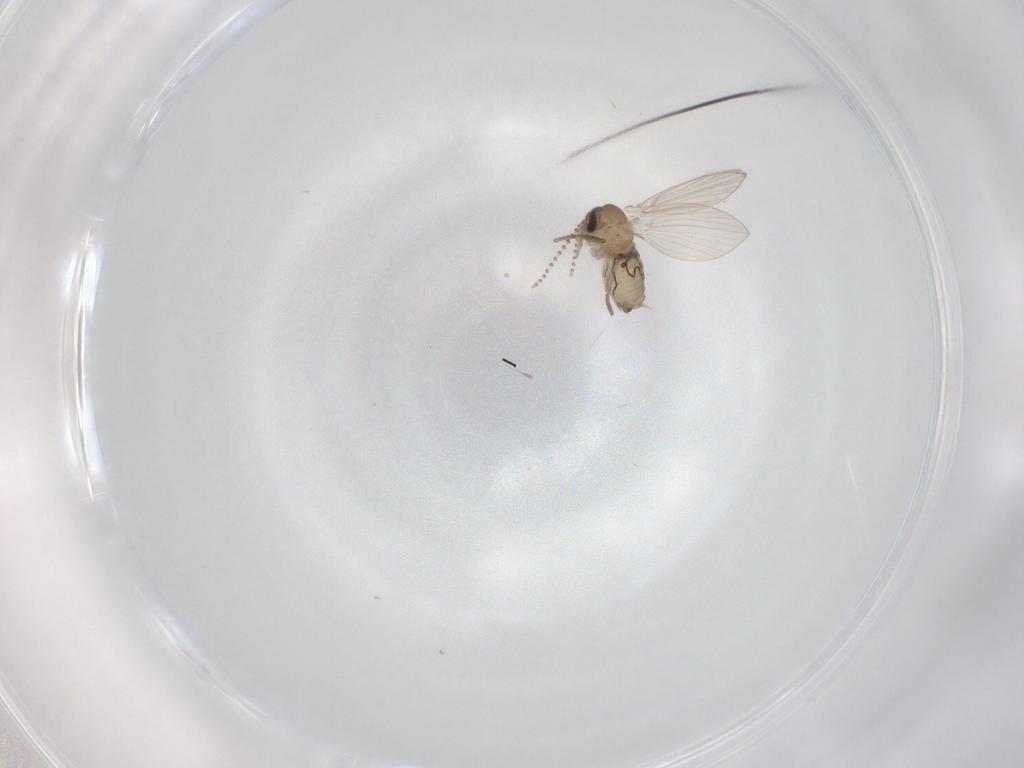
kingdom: Animalia
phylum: Arthropoda
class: Insecta
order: Diptera
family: Psychodidae
